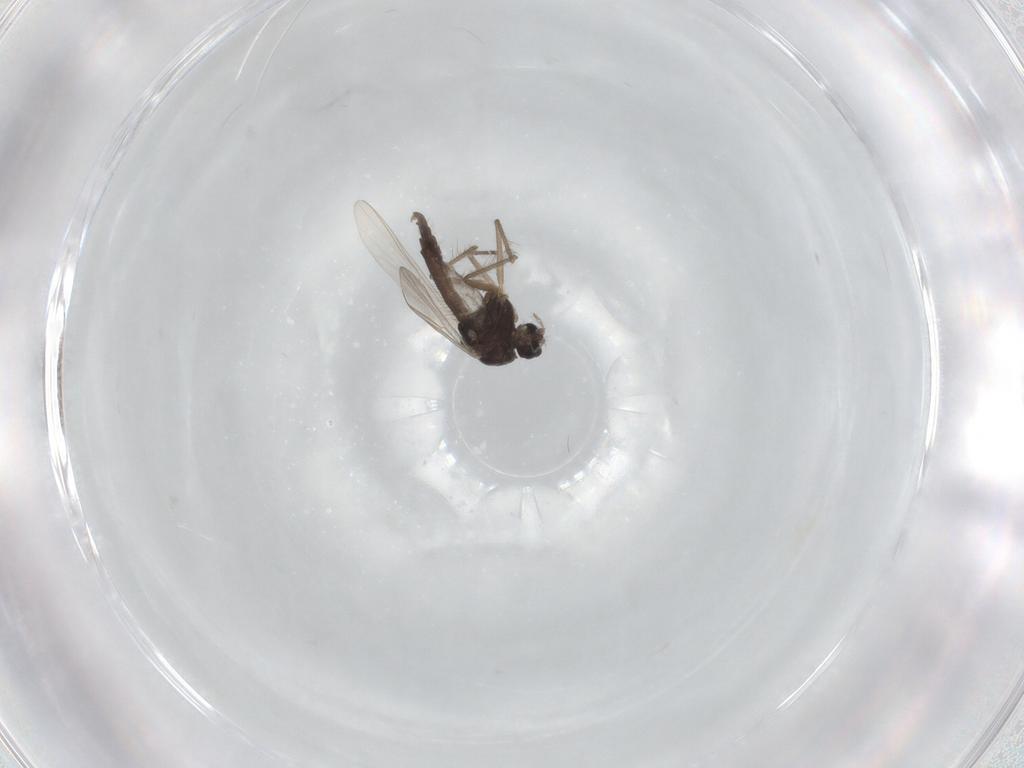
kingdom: Animalia
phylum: Arthropoda
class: Insecta
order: Diptera
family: Chironomidae
